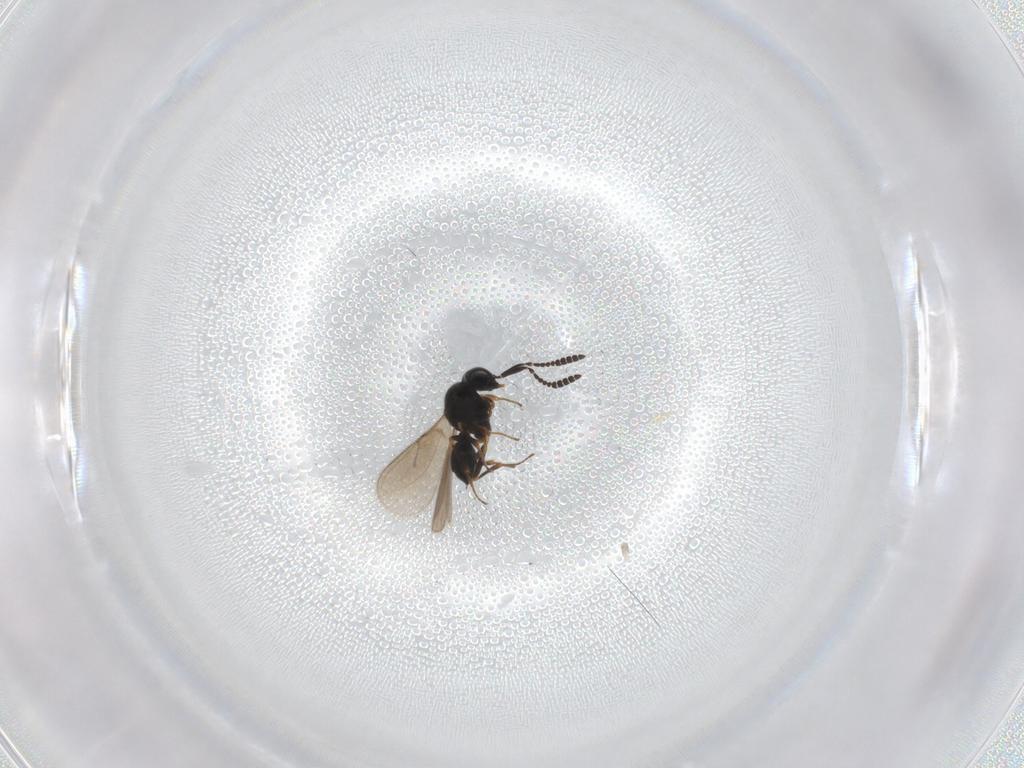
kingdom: Animalia
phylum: Arthropoda
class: Insecta
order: Hymenoptera
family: Scelionidae
